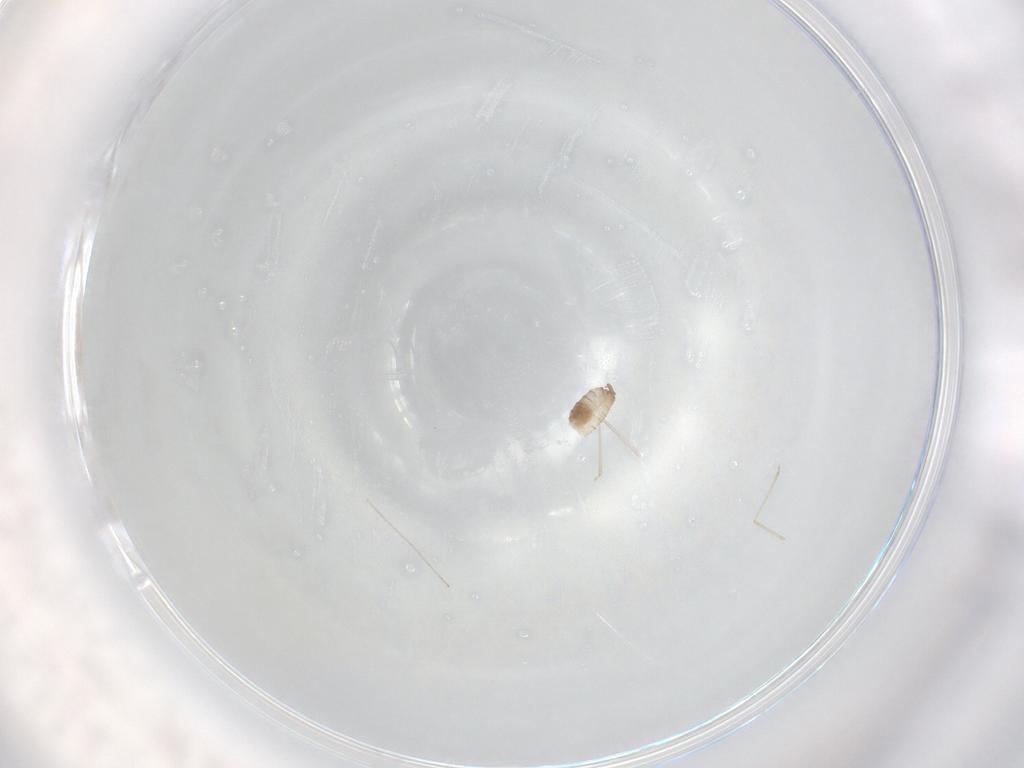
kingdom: Animalia
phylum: Arthropoda
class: Insecta
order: Diptera
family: Cecidomyiidae
